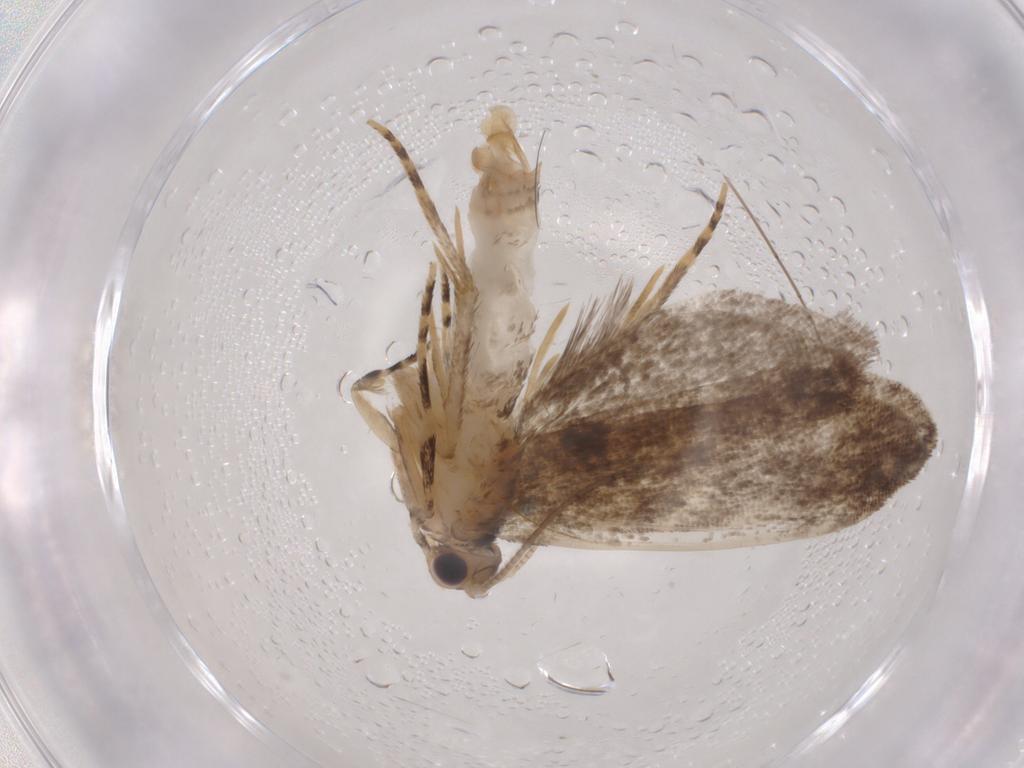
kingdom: Animalia
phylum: Arthropoda
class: Insecta
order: Lepidoptera
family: Tineidae
